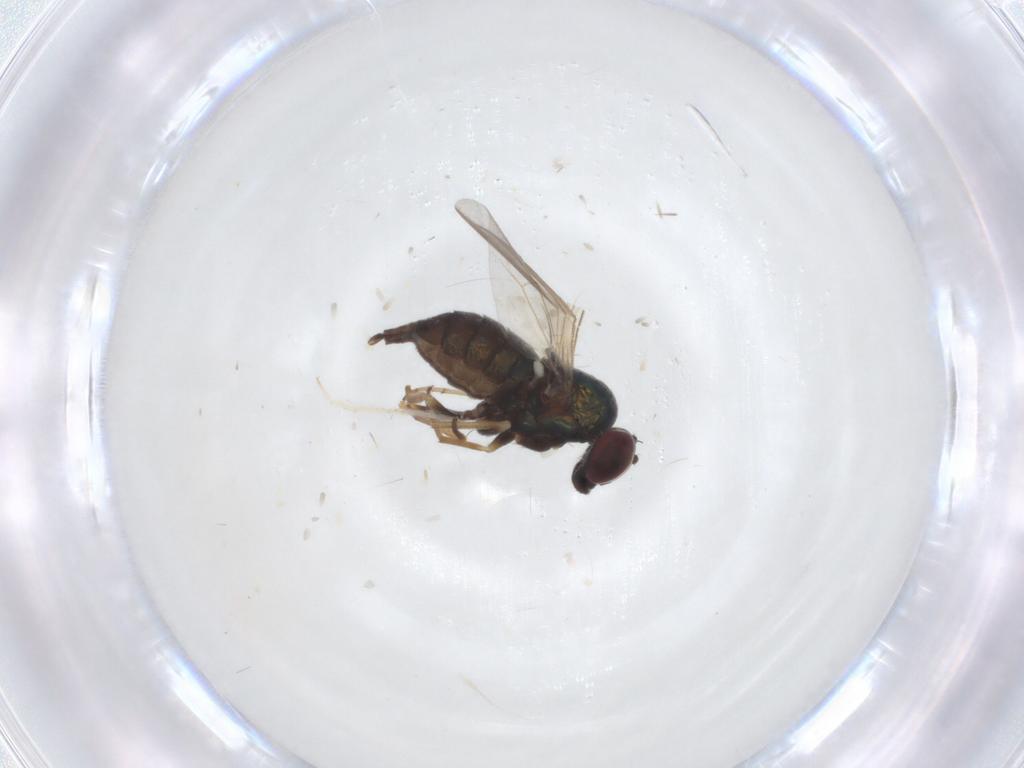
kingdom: Animalia
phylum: Arthropoda
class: Insecta
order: Diptera
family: Dolichopodidae
